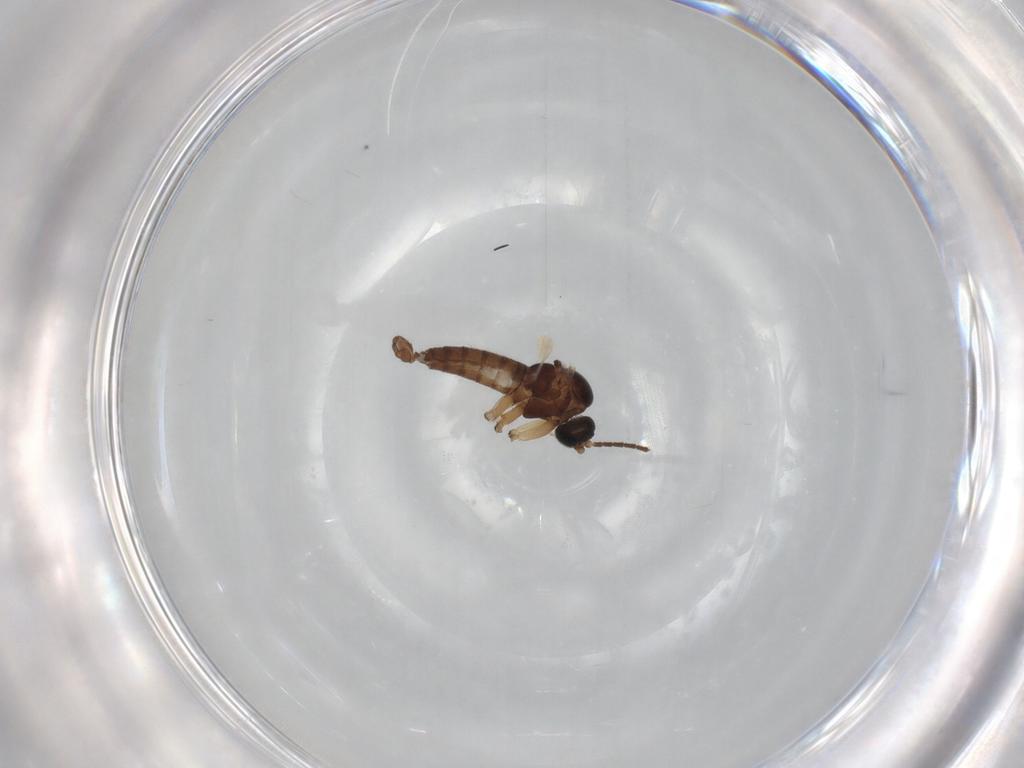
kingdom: Animalia
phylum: Arthropoda
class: Insecta
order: Diptera
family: Sciaridae
